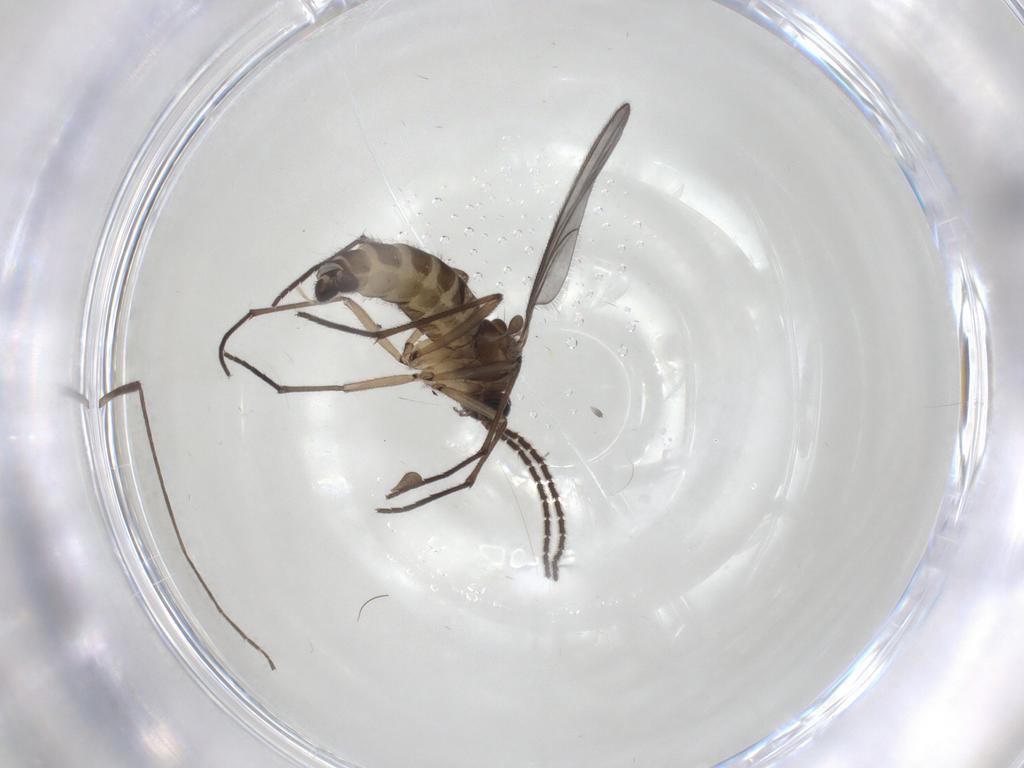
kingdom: Animalia
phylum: Arthropoda
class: Insecta
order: Diptera
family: Sciaridae
